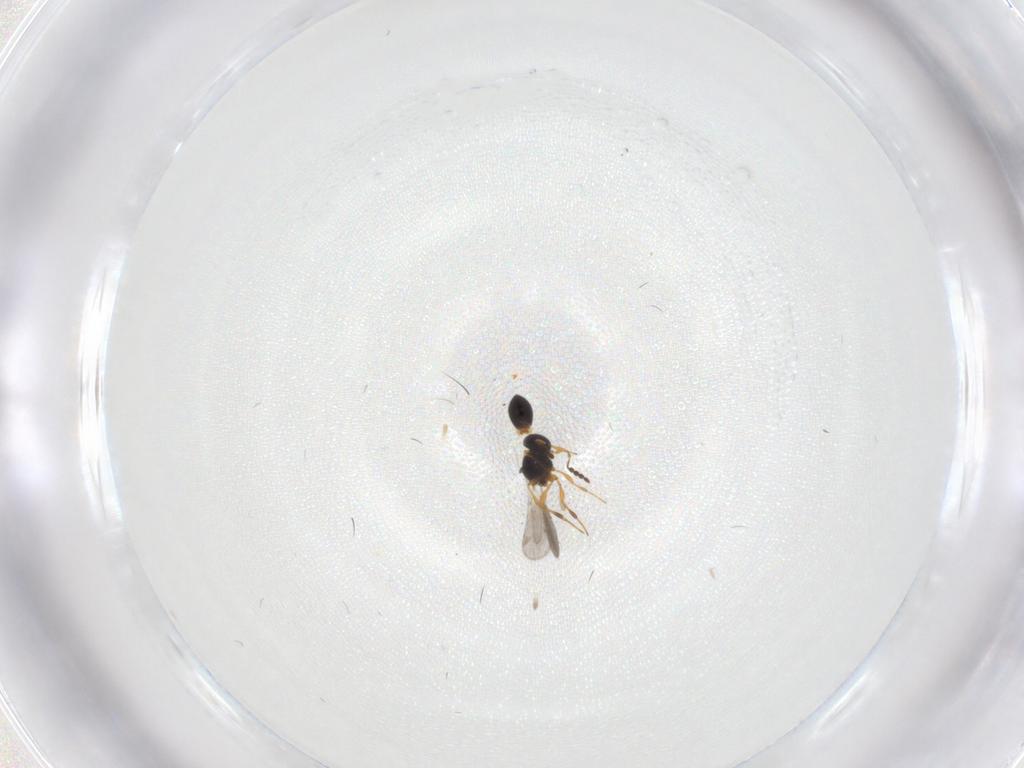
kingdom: Animalia
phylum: Arthropoda
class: Insecta
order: Hymenoptera
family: Platygastridae
